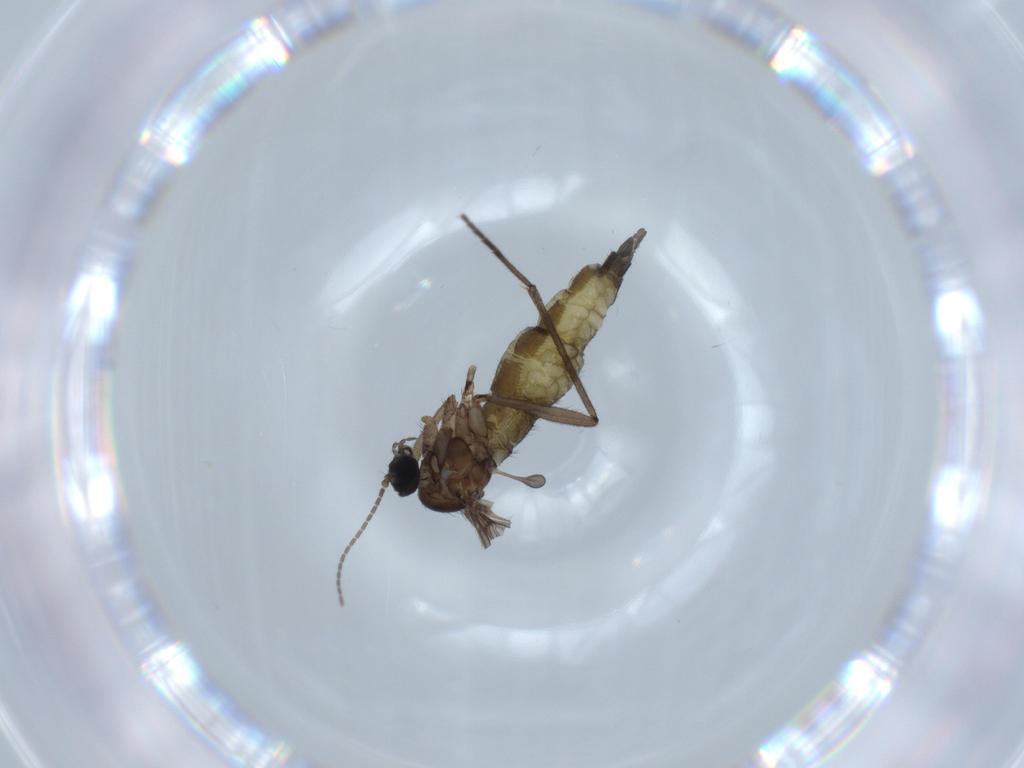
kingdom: Animalia
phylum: Arthropoda
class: Insecta
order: Diptera
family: Sciaridae
